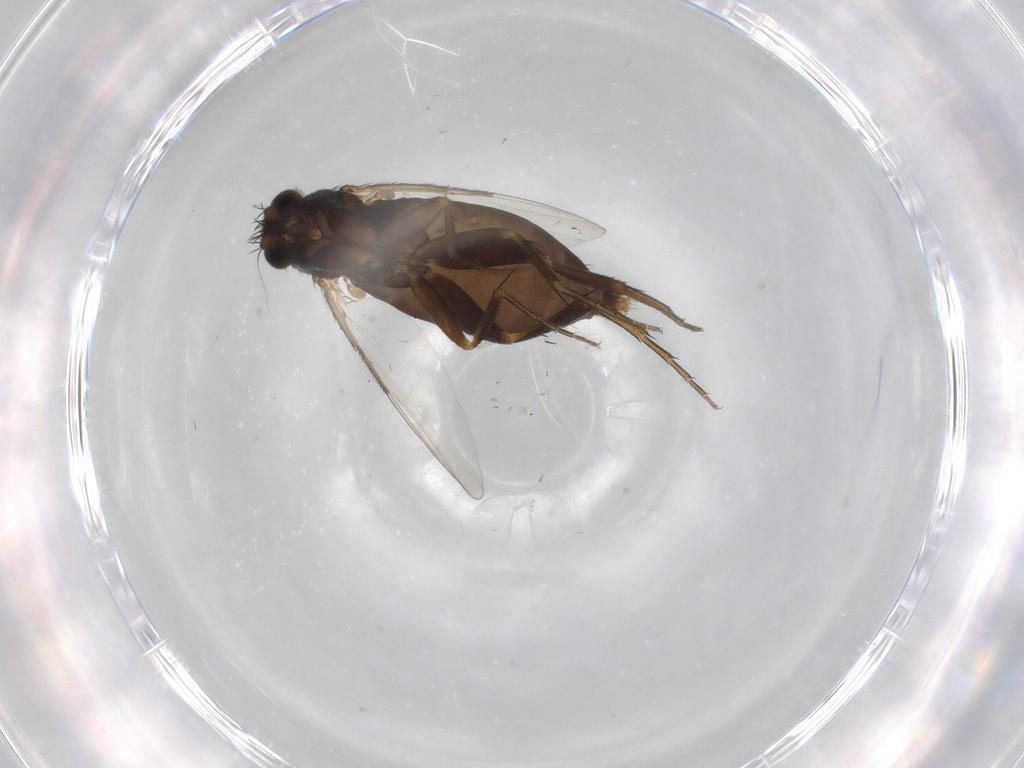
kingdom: Animalia
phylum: Arthropoda
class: Insecta
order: Diptera
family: Phoridae
